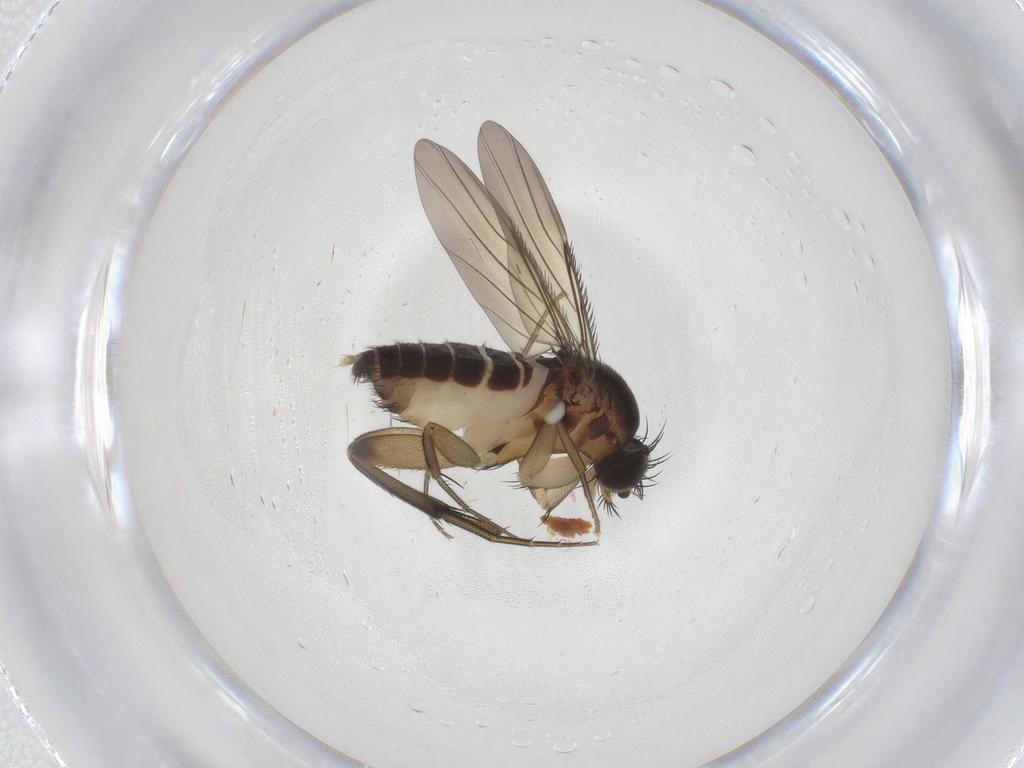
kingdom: Animalia
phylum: Arthropoda
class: Insecta
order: Diptera
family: Phoridae
